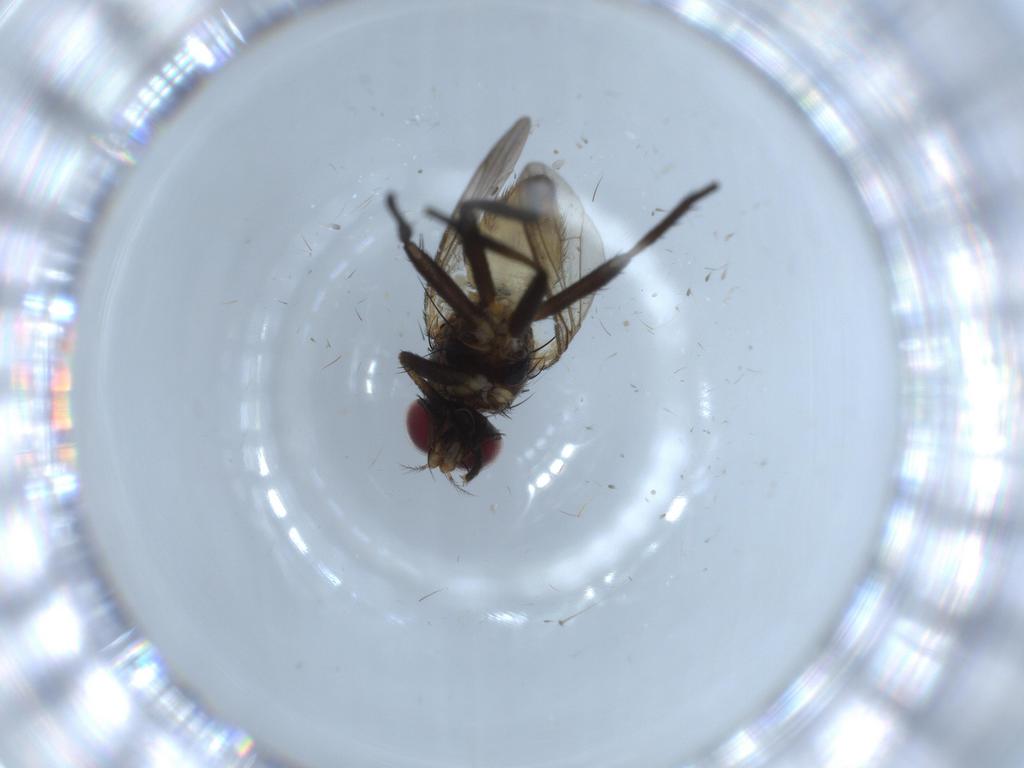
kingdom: Animalia
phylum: Arthropoda
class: Insecta
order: Diptera
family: Anthomyiidae
